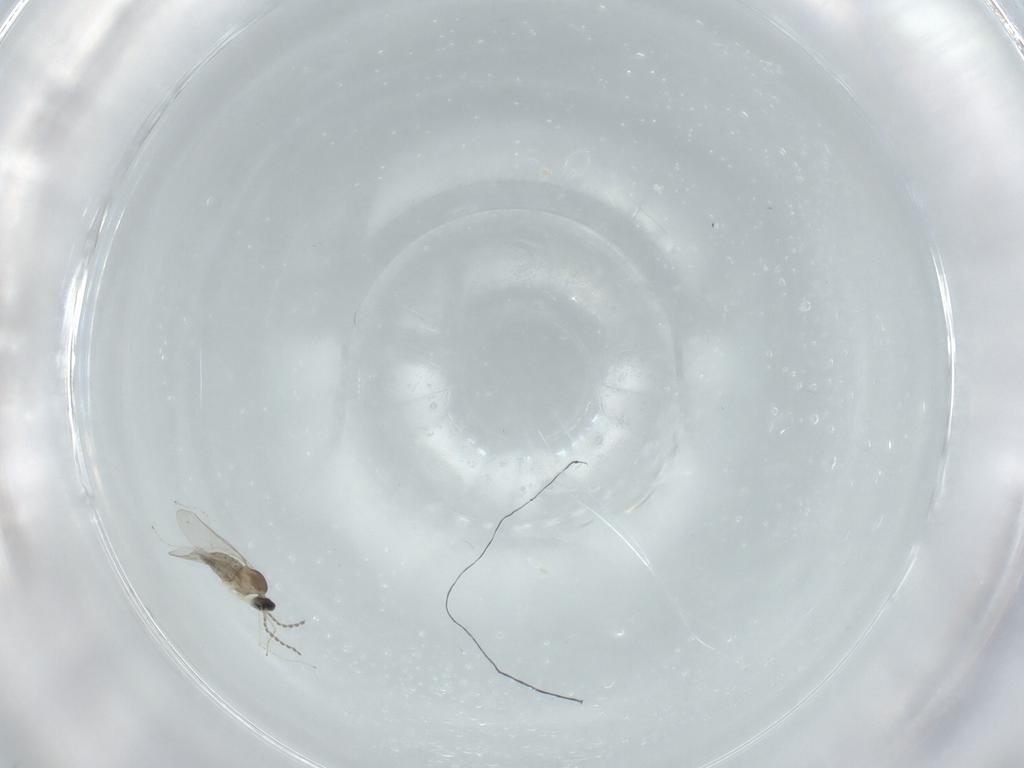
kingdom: Animalia
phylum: Arthropoda
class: Insecta
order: Diptera
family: Cecidomyiidae
